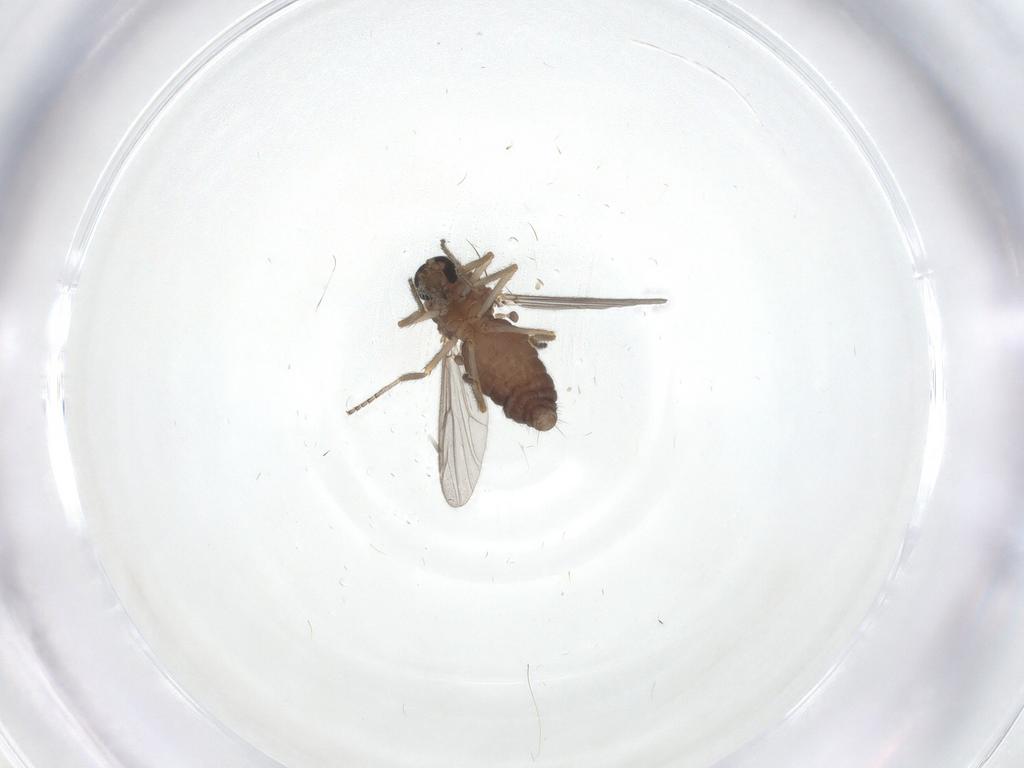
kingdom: Animalia
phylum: Arthropoda
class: Insecta
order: Diptera
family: Ceratopogonidae
